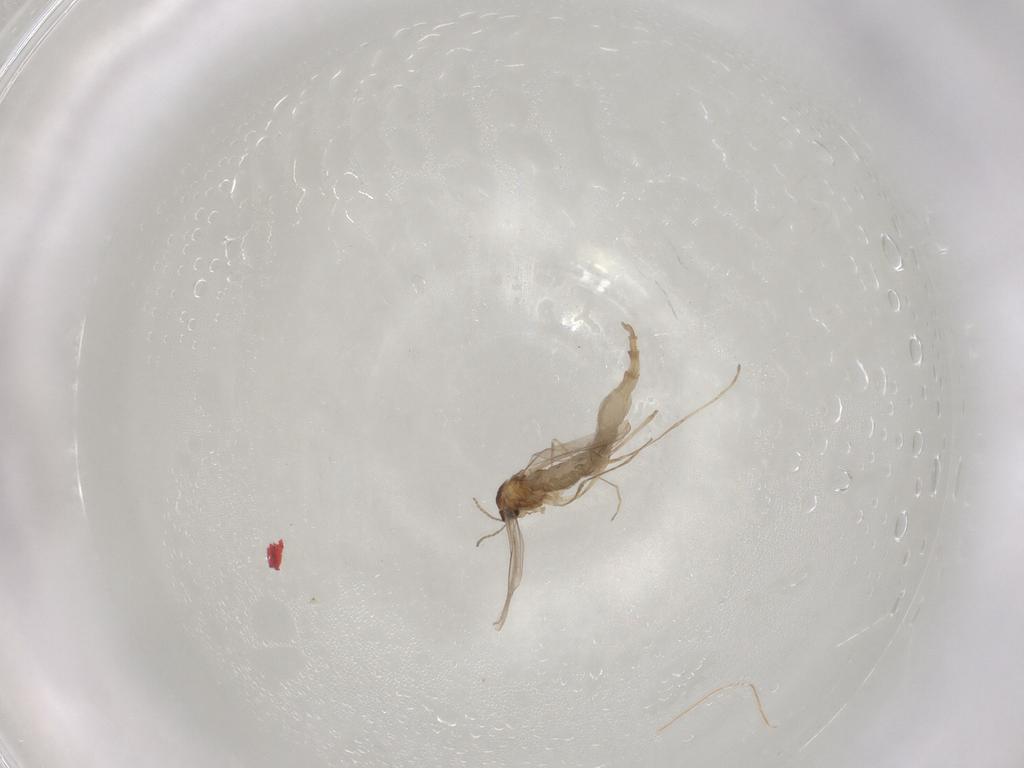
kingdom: Animalia
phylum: Arthropoda
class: Insecta
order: Diptera
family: Cecidomyiidae
